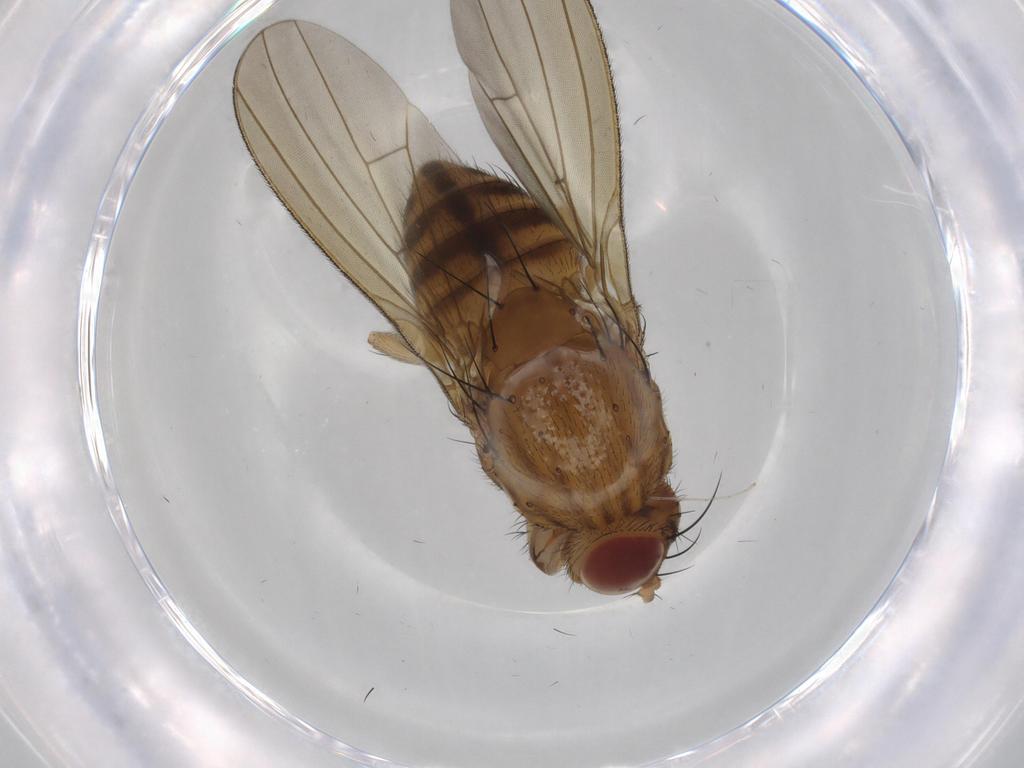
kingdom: Animalia
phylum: Arthropoda
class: Insecta
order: Diptera
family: Lauxaniidae
